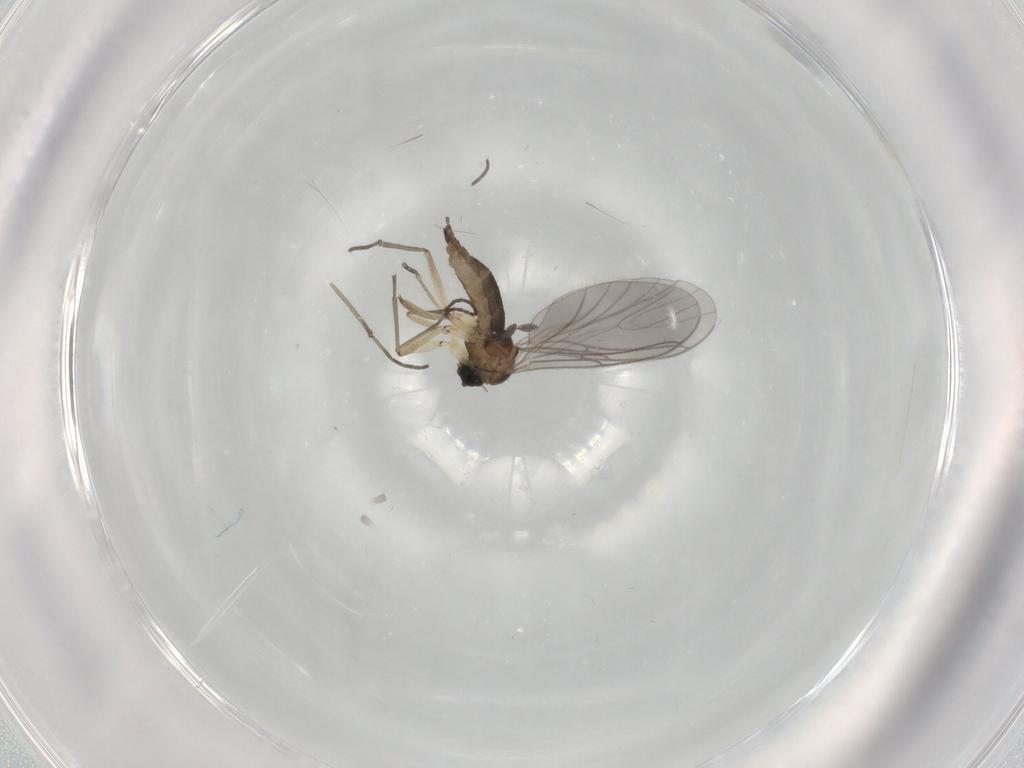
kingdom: Animalia
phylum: Arthropoda
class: Insecta
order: Diptera
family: Sciaridae
